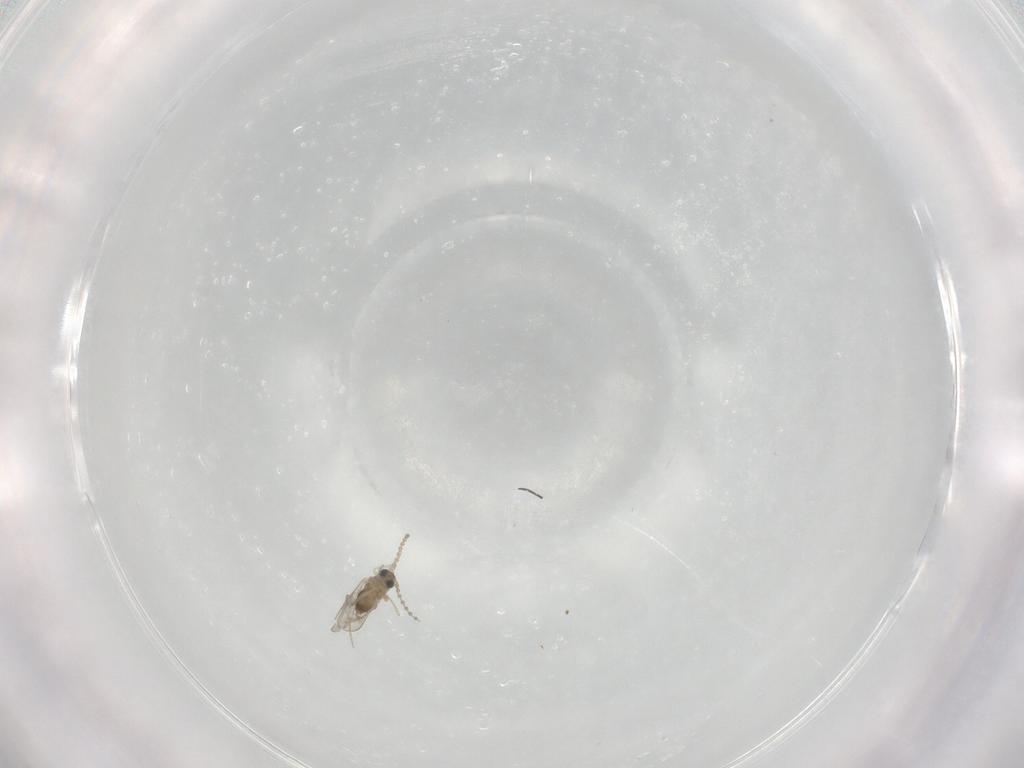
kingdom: Animalia
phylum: Arthropoda
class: Insecta
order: Diptera
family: Cecidomyiidae
